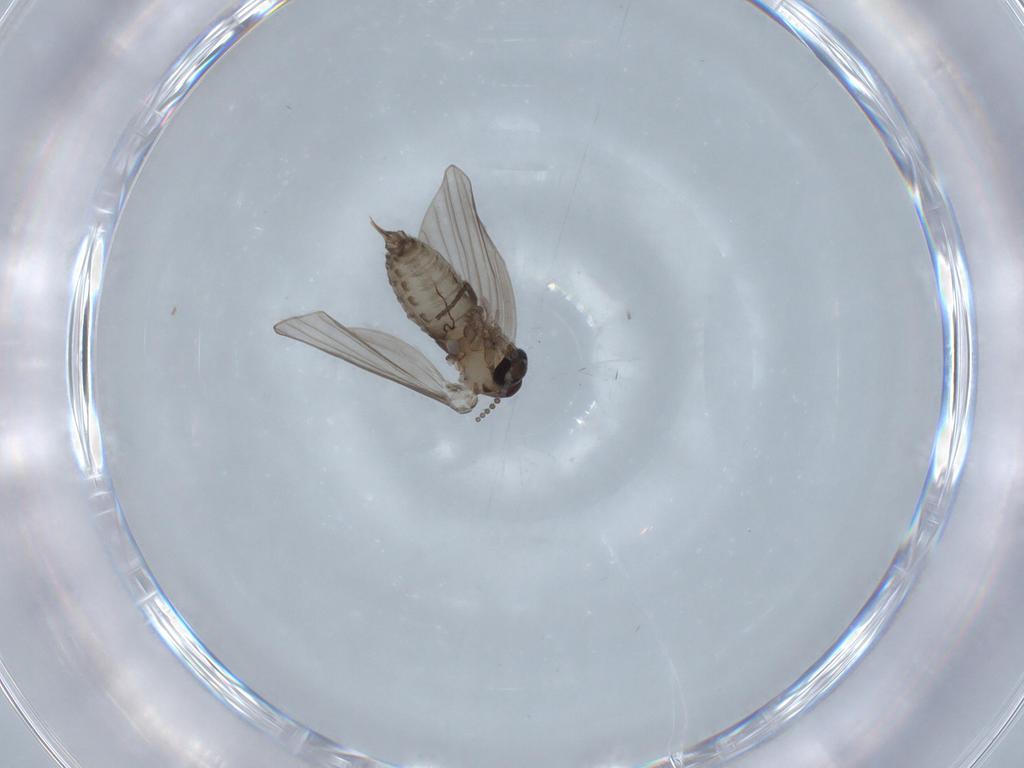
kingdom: Animalia
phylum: Arthropoda
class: Insecta
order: Diptera
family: Psychodidae
